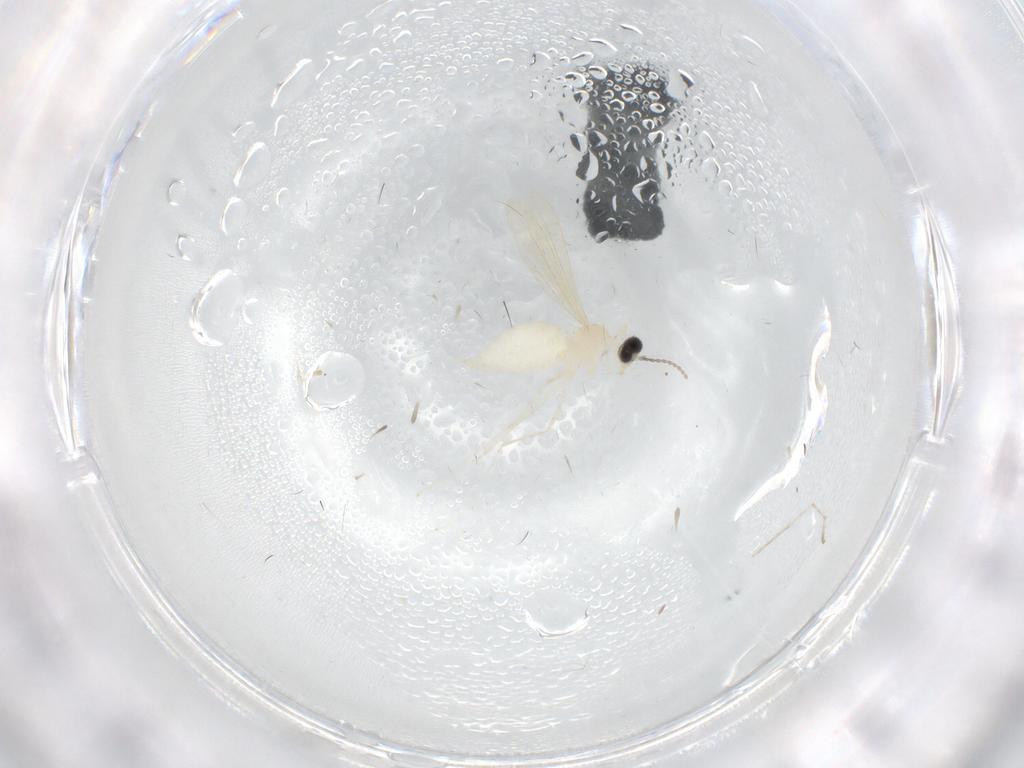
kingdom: Animalia
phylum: Arthropoda
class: Insecta
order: Diptera
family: Cecidomyiidae
